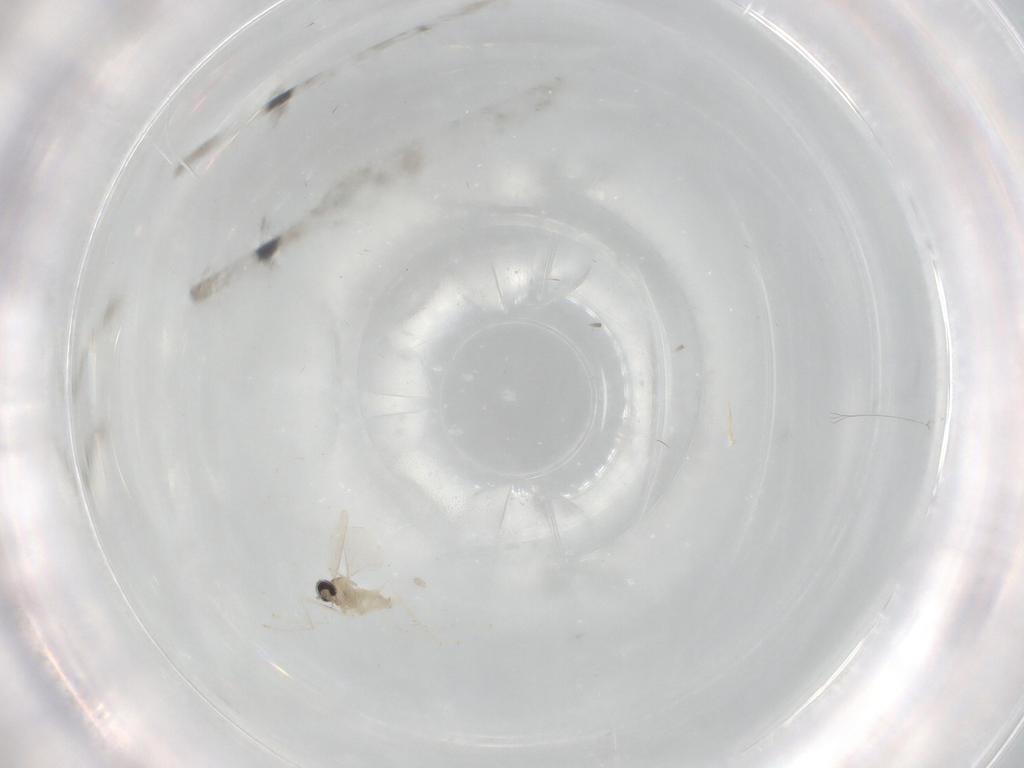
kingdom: Animalia
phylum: Arthropoda
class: Insecta
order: Diptera
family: Cecidomyiidae
